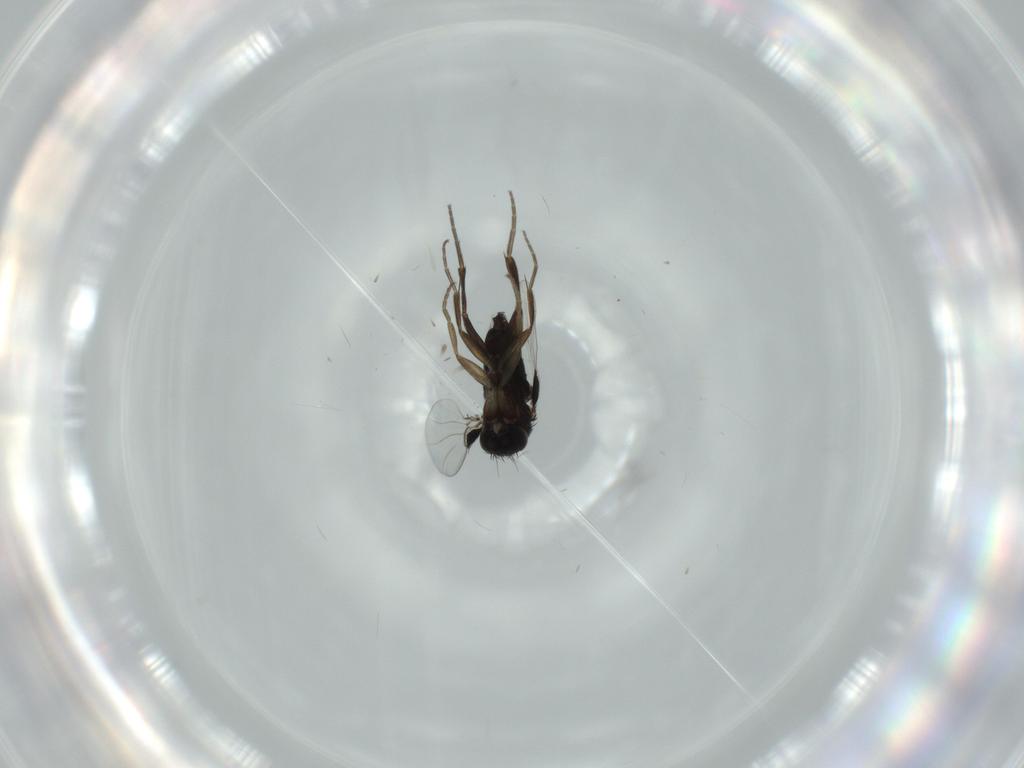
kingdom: Animalia
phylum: Arthropoda
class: Insecta
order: Diptera
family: Phoridae
